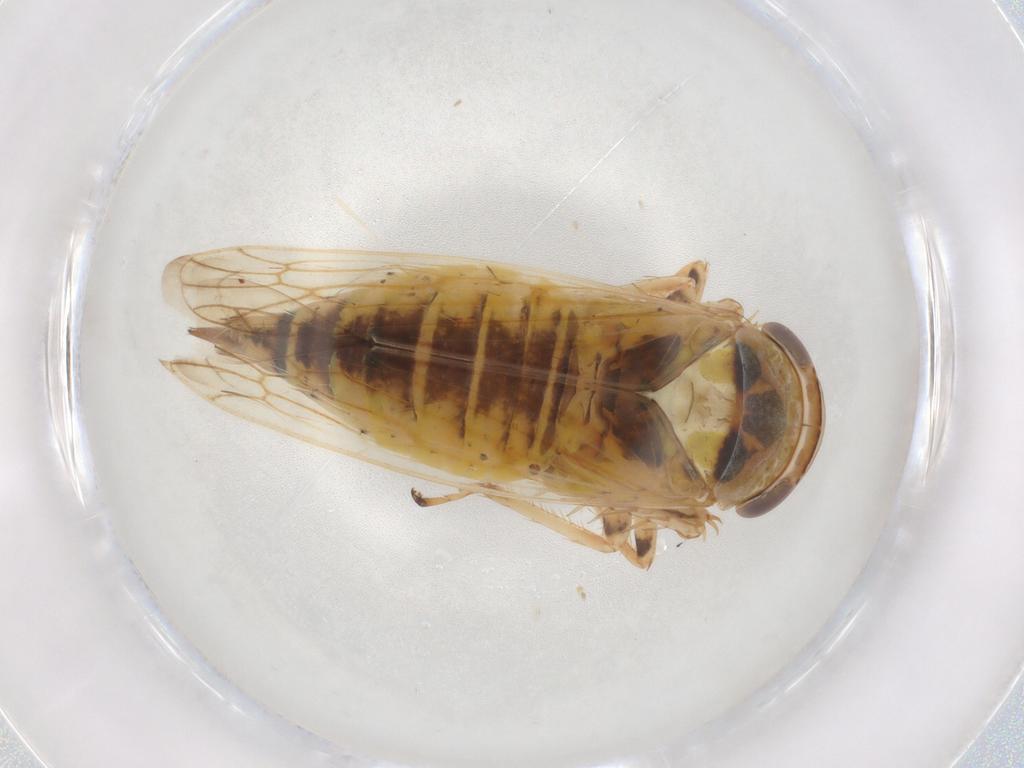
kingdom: Animalia
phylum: Arthropoda
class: Insecta
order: Hemiptera
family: Cicadellidae
